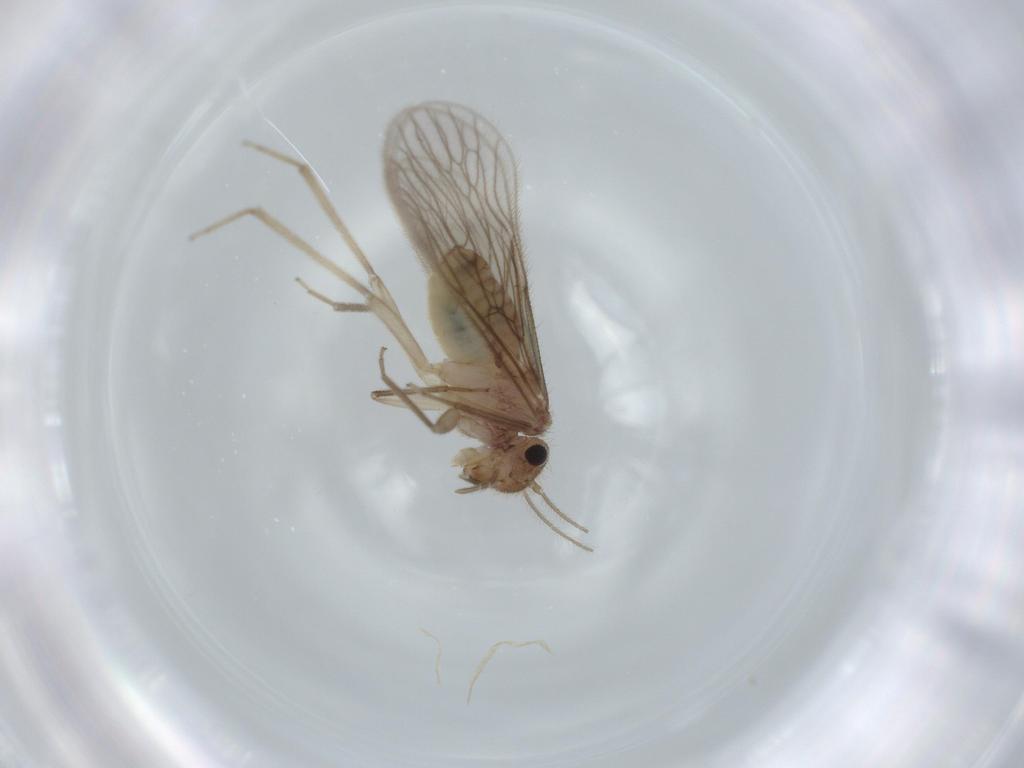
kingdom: Animalia
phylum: Arthropoda
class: Insecta
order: Psocodea
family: Cladiopsocidae
